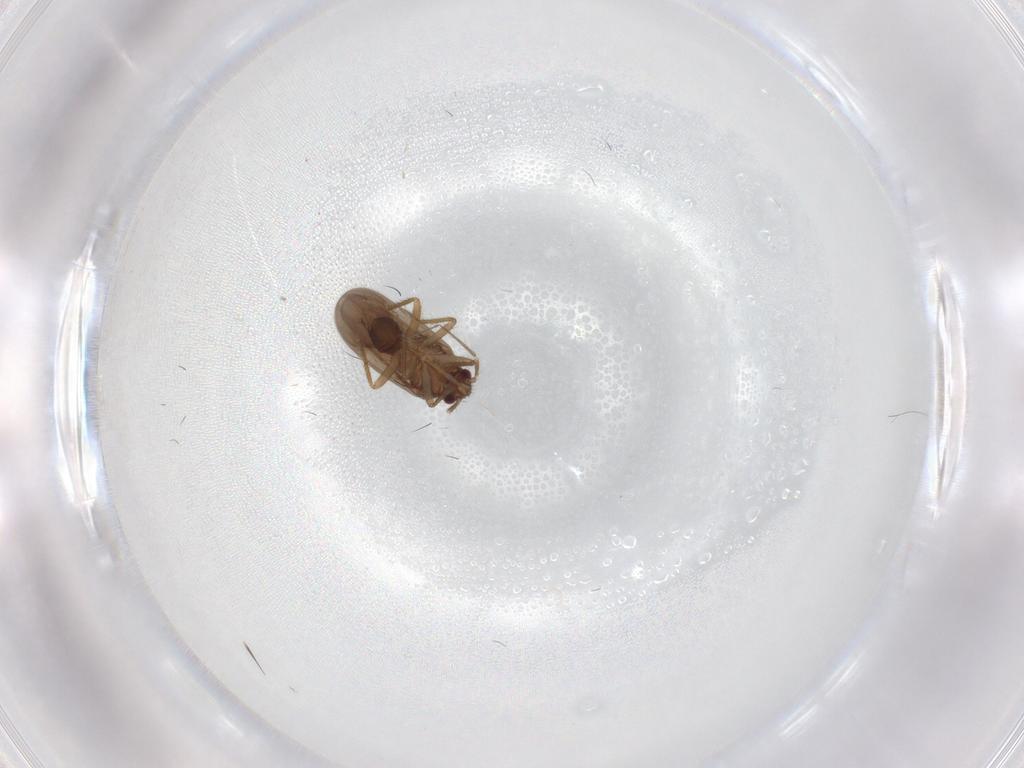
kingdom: Animalia
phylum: Arthropoda
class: Insecta
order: Hemiptera
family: Ceratocombidae
